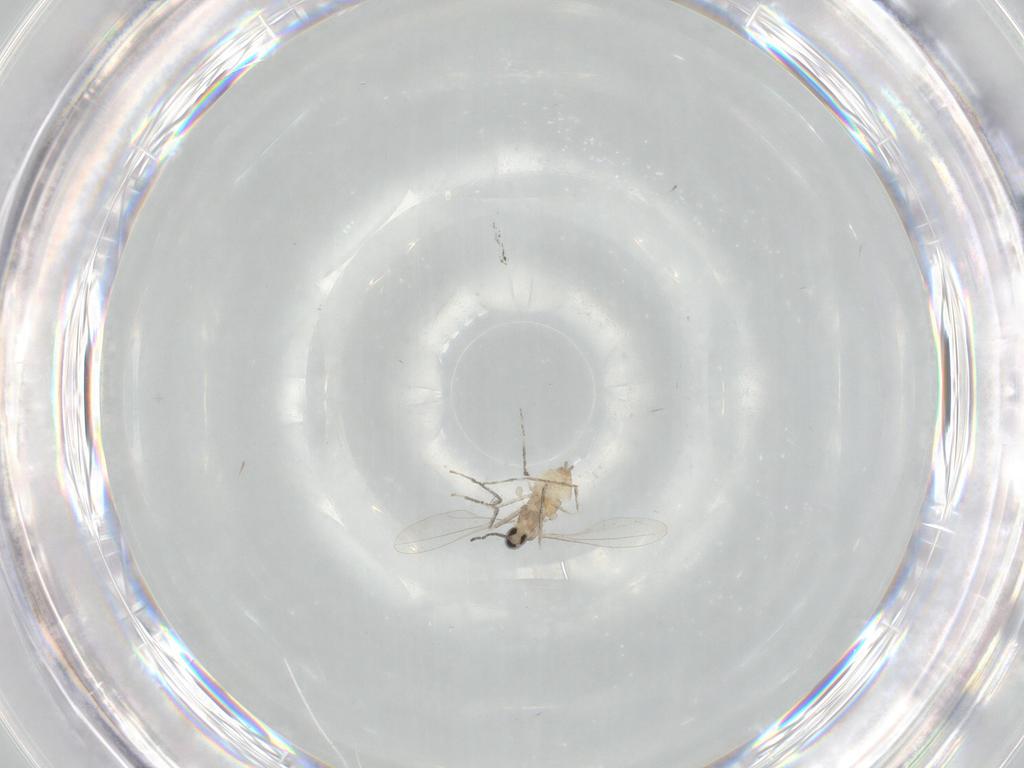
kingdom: Animalia
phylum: Arthropoda
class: Insecta
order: Diptera
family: Cecidomyiidae
